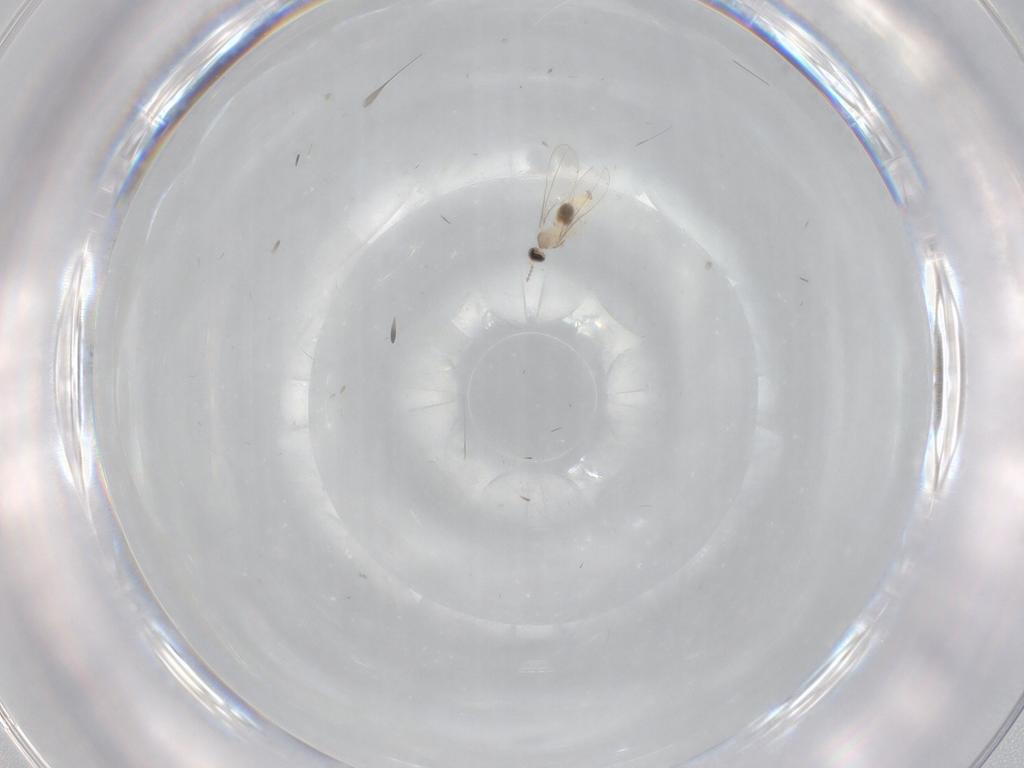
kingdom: Animalia
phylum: Arthropoda
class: Insecta
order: Diptera
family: Cecidomyiidae
